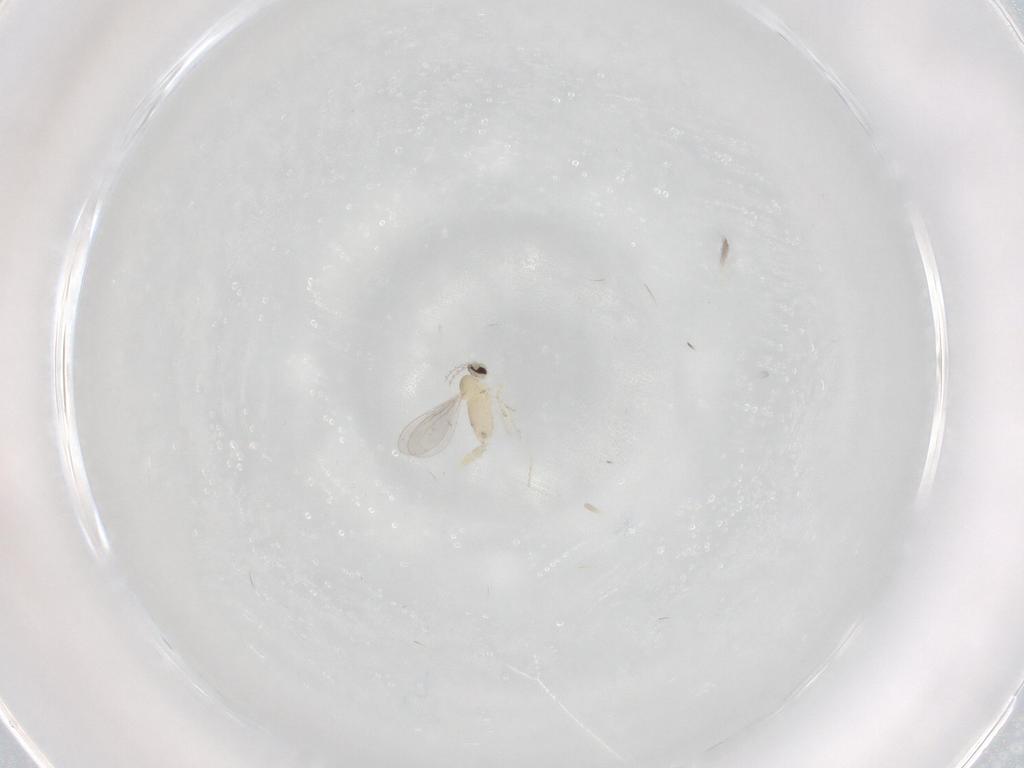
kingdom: Animalia
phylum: Arthropoda
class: Insecta
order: Diptera
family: Cecidomyiidae
